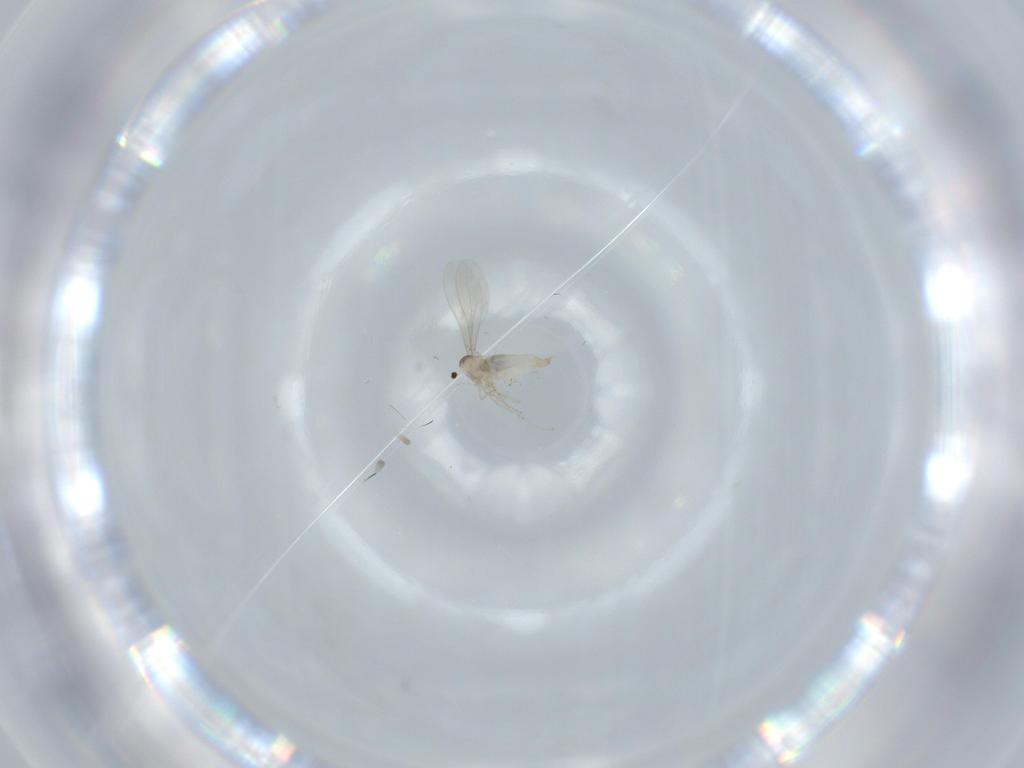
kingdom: Animalia
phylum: Arthropoda
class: Insecta
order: Diptera
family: Cecidomyiidae
